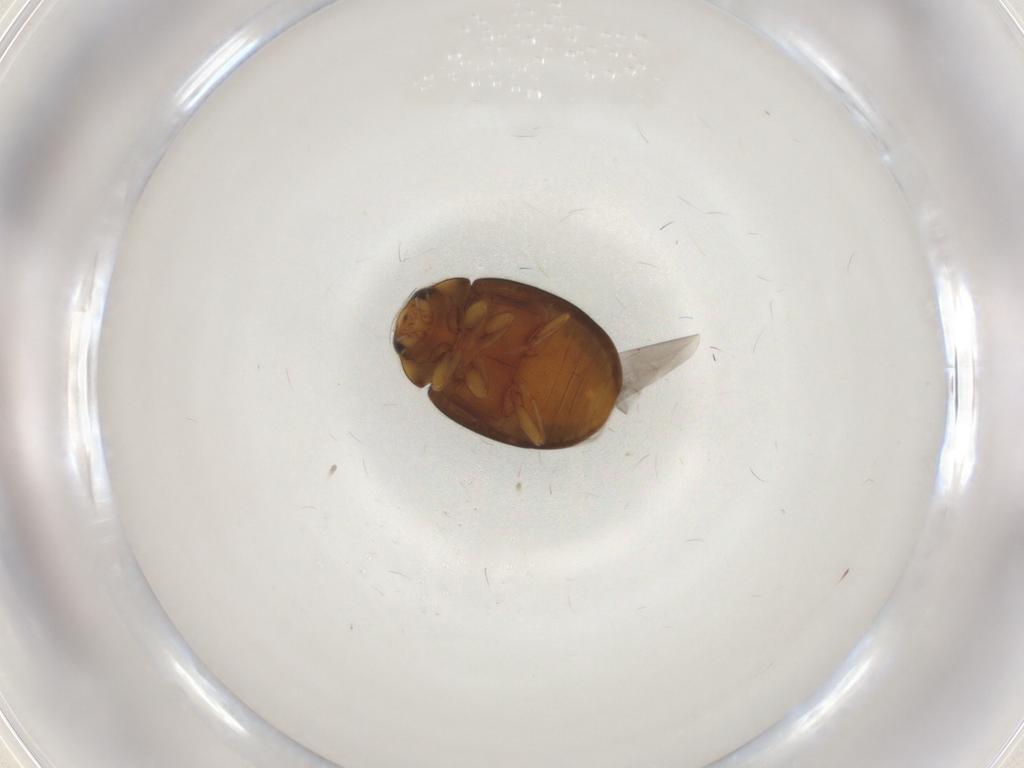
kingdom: Animalia
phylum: Arthropoda
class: Insecta
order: Coleoptera
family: Coccinellidae
